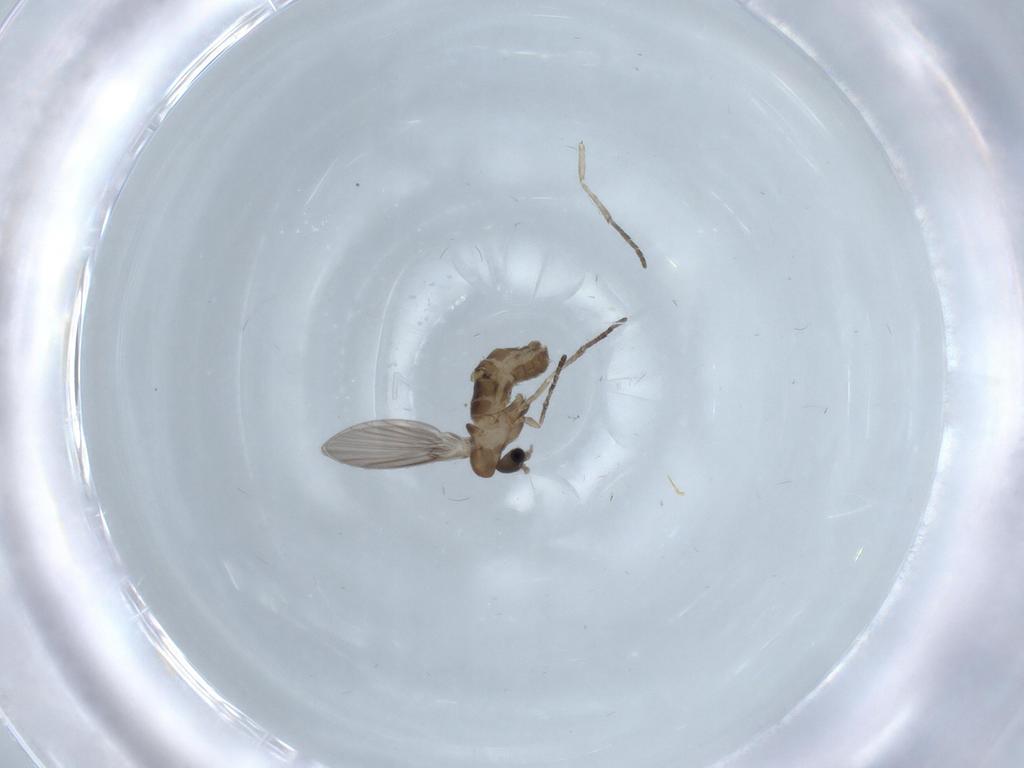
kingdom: Animalia
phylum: Arthropoda
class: Insecta
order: Diptera
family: Psychodidae
